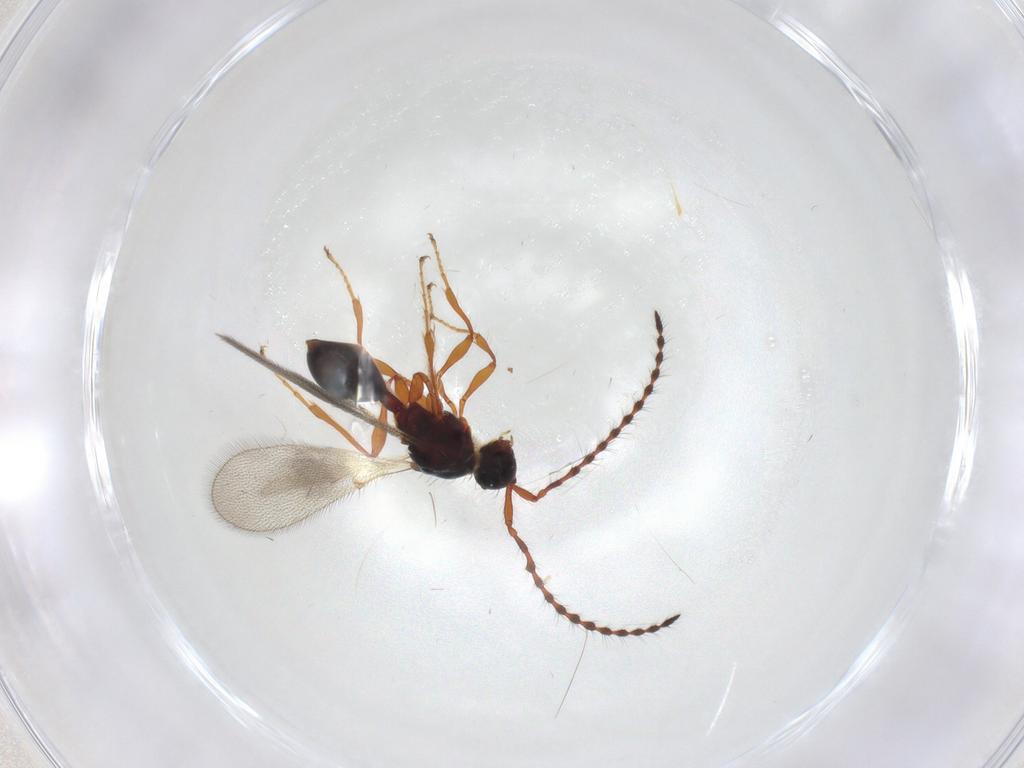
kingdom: Animalia
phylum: Arthropoda
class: Insecta
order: Hymenoptera
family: Diapriidae
